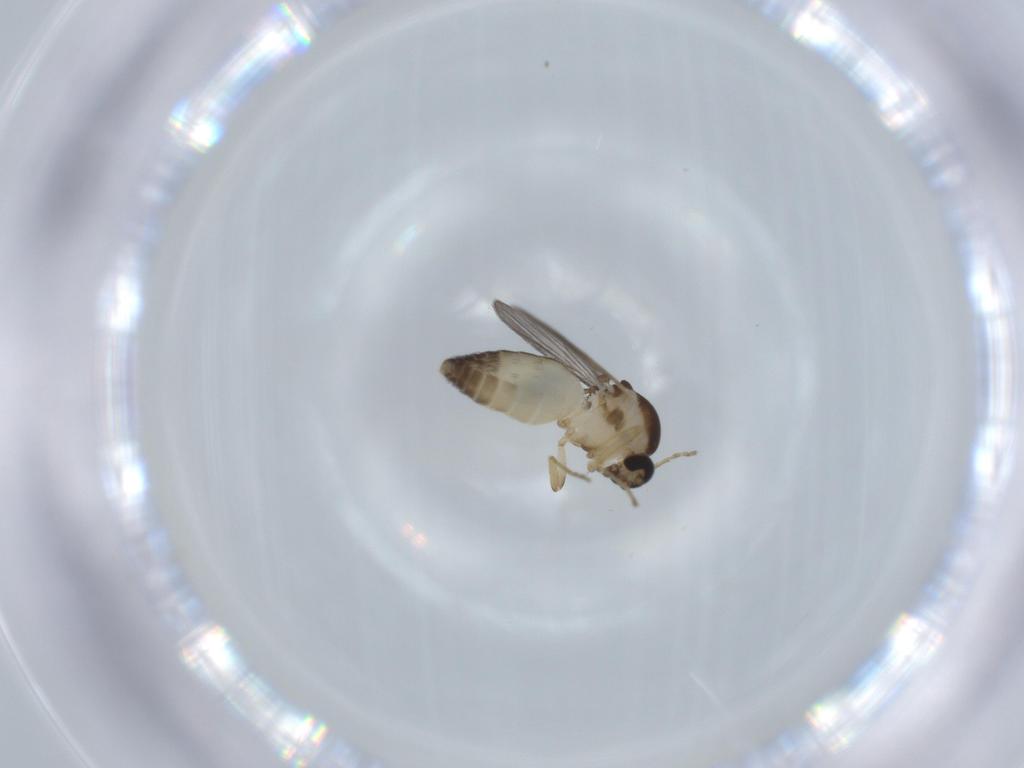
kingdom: Animalia
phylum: Arthropoda
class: Insecta
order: Diptera
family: Ceratopogonidae
